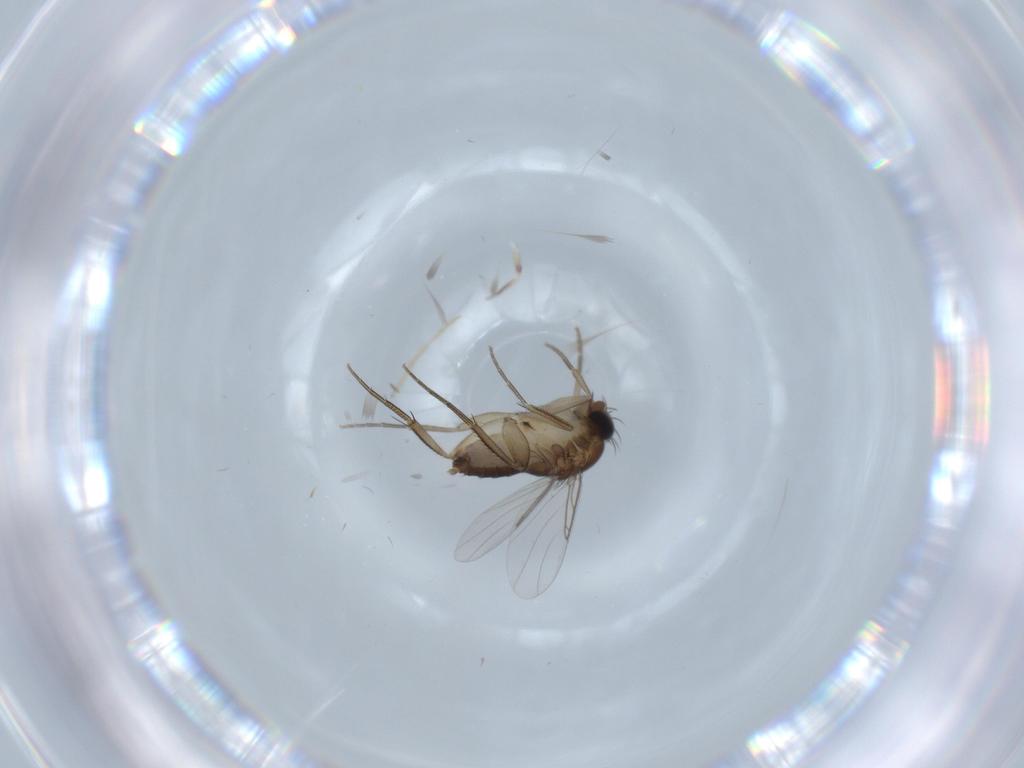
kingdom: Animalia
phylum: Arthropoda
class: Insecta
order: Diptera
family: Chironomidae
